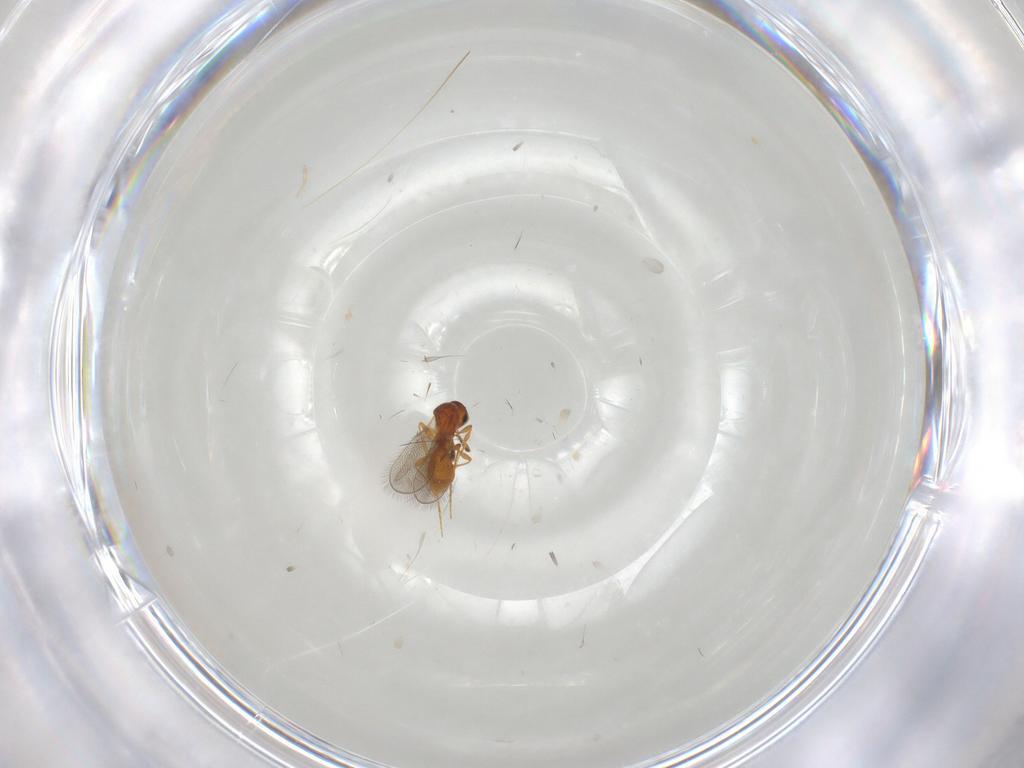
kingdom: Animalia
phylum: Arthropoda
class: Insecta
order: Hymenoptera
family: Platygastridae
